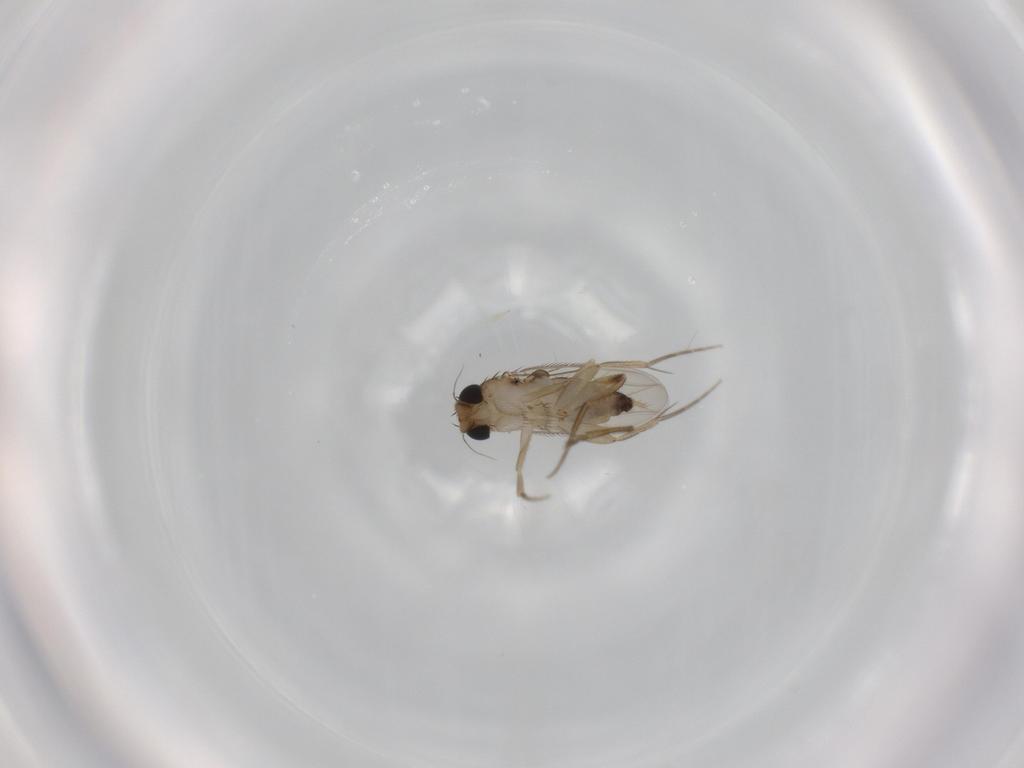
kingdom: Animalia
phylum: Arthropoda
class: Insecta
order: Diptera
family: Phoridae
